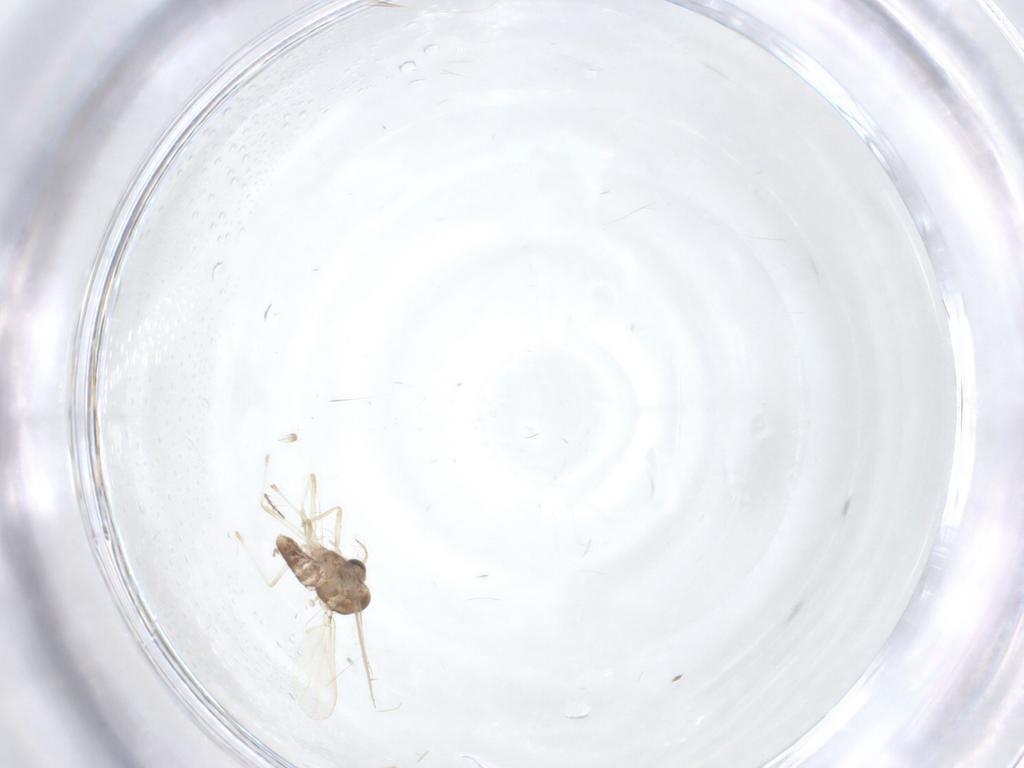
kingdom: Animalia
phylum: Arthropoda
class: Insecta
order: Diptera
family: Chironomidae
